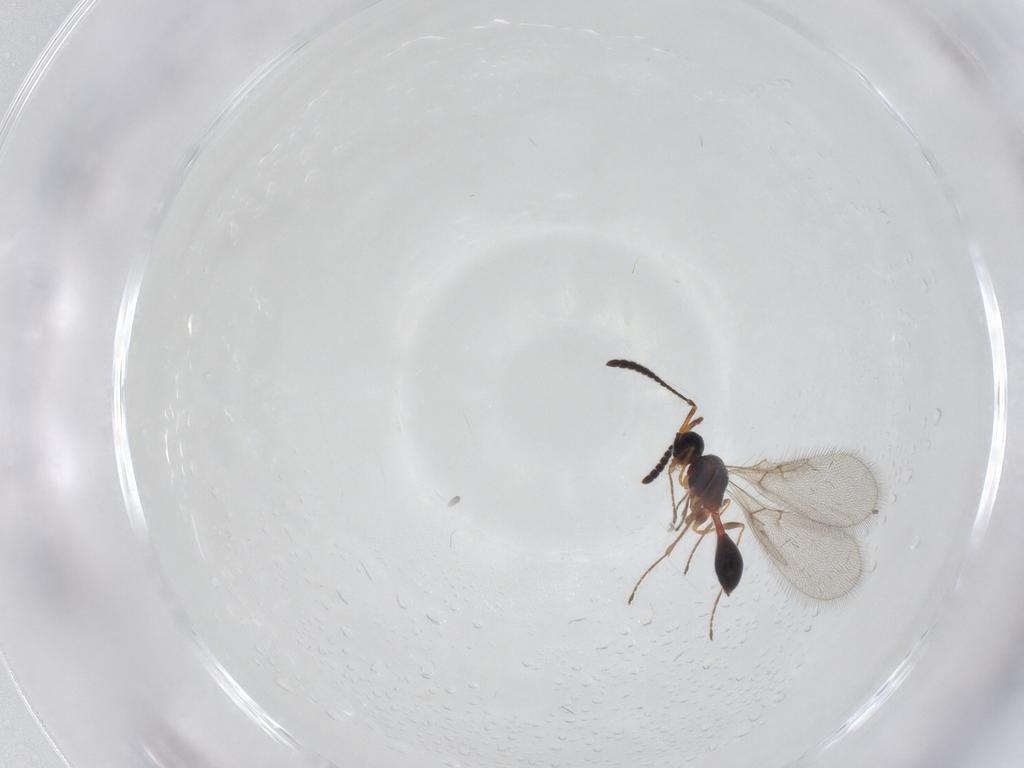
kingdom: Animalia
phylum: Arthropoda
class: Insecta
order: Hymenoptera
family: Diapriidae
